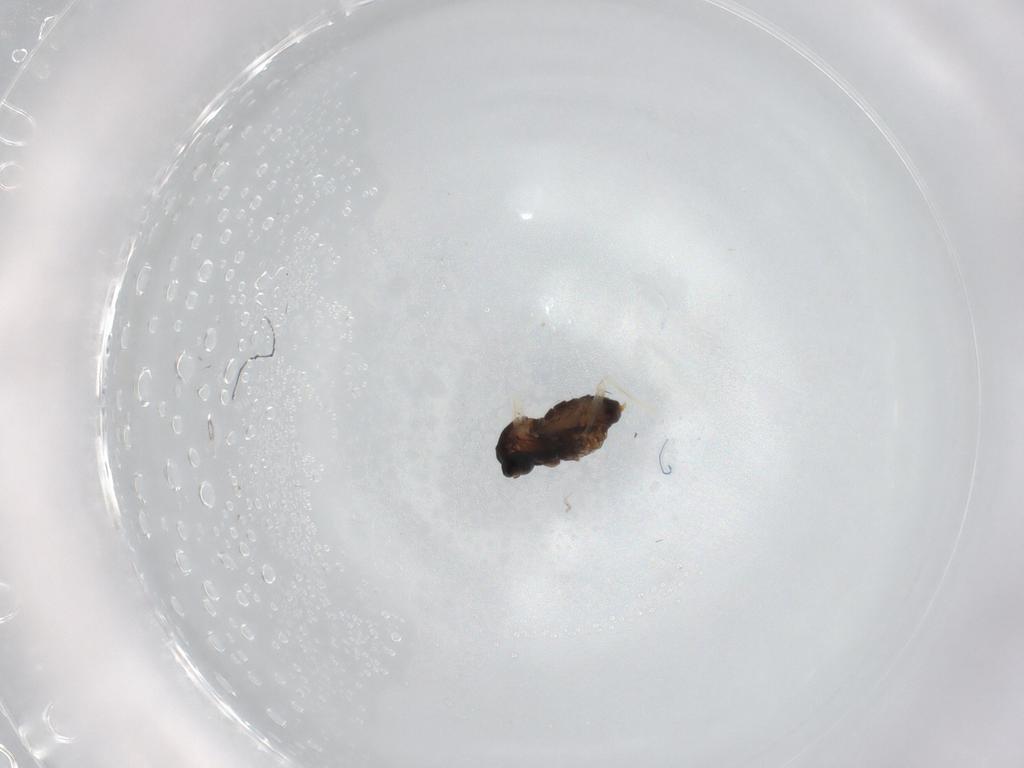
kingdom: Animalia
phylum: Arthropoda
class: Insecta
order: Diptera
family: Cecidomyiidae
